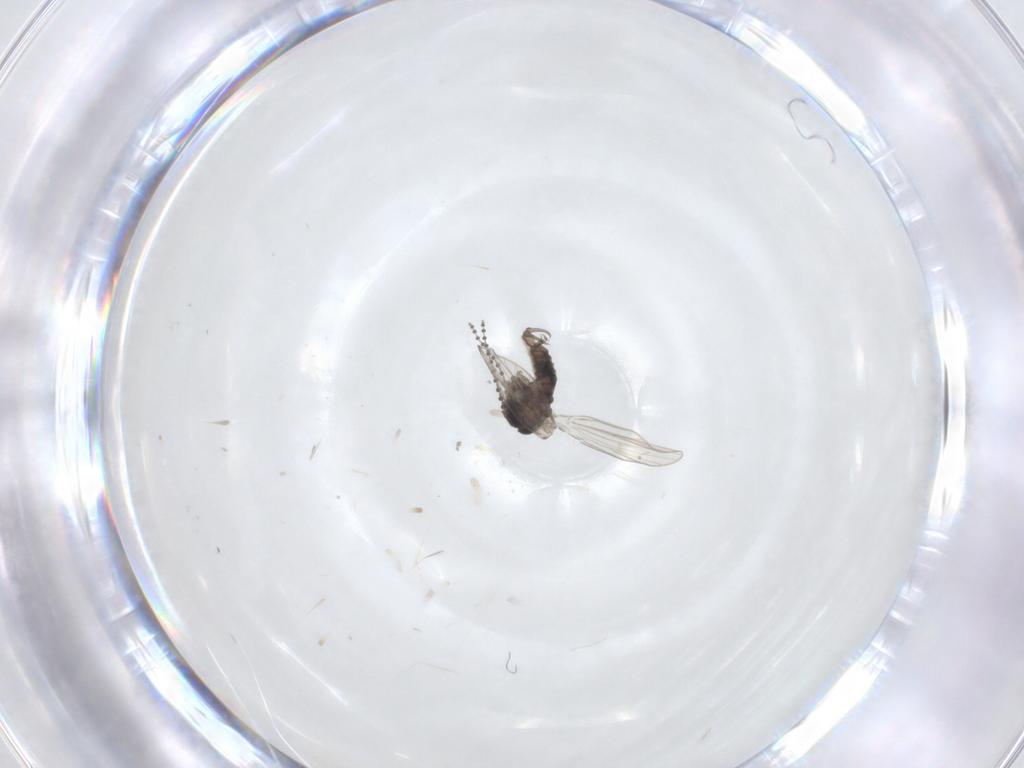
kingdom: Animalia
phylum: Arthropoda
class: Insecta
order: Diptera
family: Psychodidae
